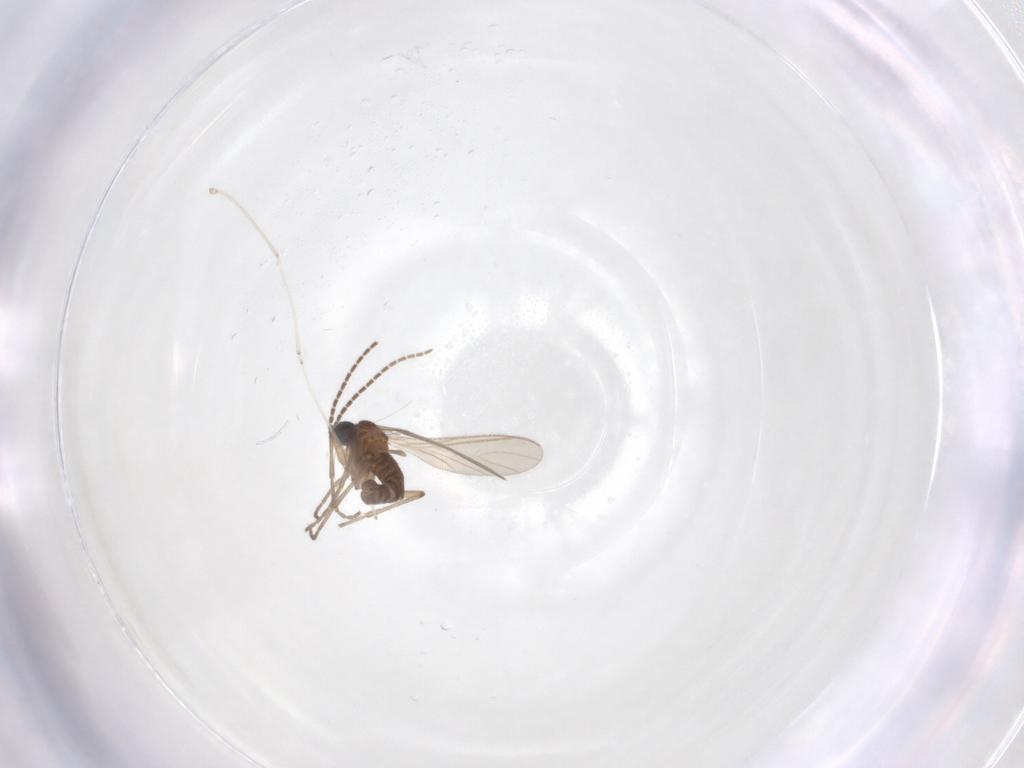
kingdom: Animalia
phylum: Arthropoda
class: Insecta
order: Diptera
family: Sciaridae
